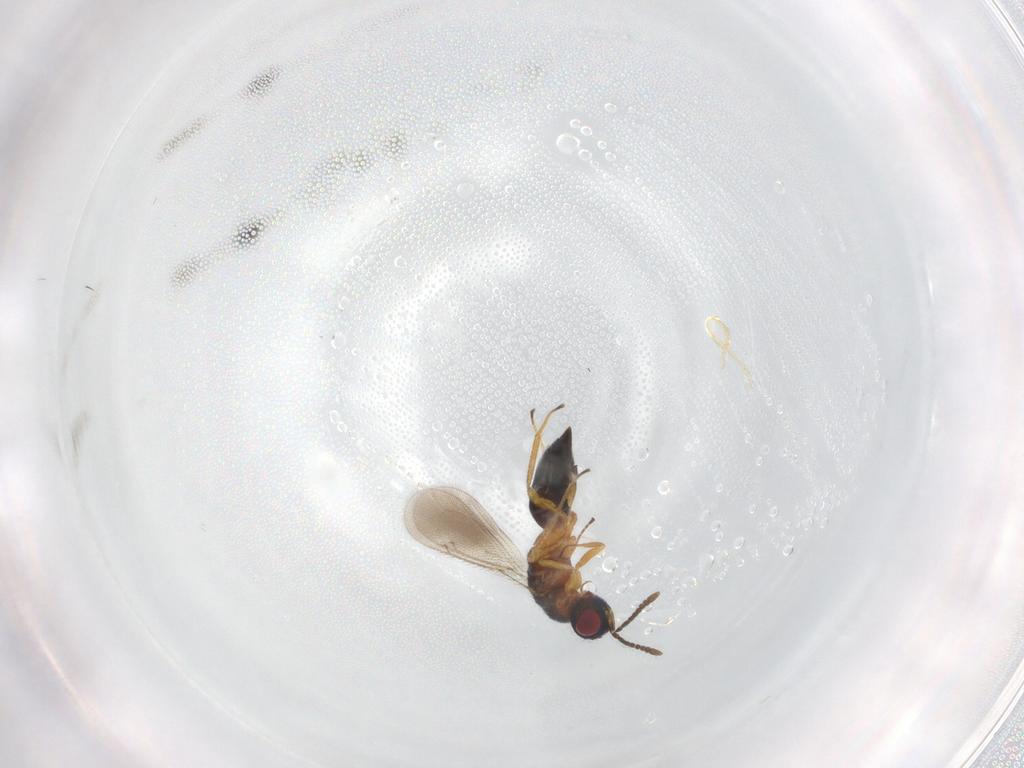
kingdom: Animalia
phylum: Arthropoda
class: Insecta
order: Hymenoptera
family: Tetracampidae
